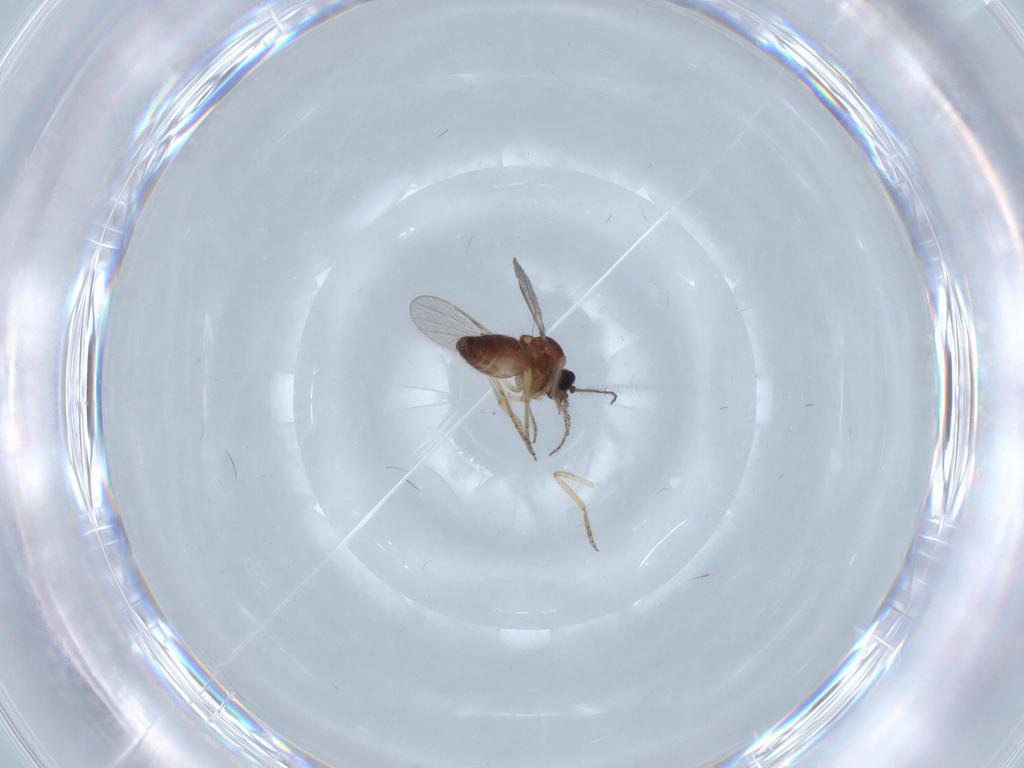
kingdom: Animalia
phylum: Arthropoda
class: Insecta
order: Diptera
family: Ceratopogonidae
